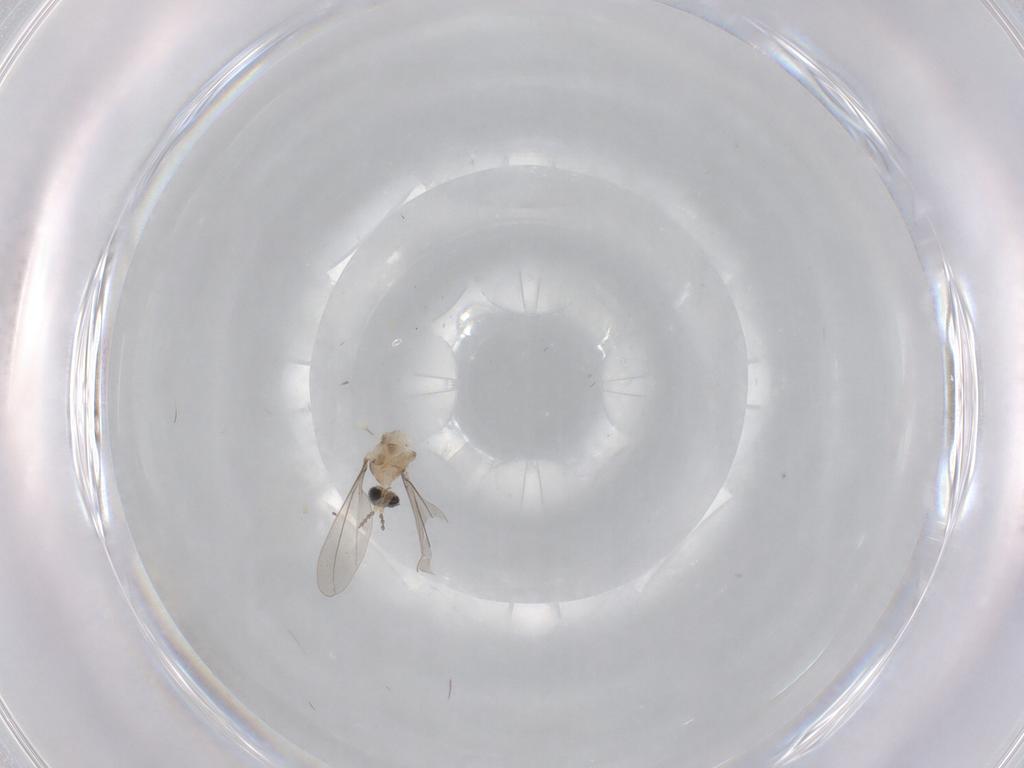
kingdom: Animalia
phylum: Arthropoda
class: Insecta
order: Diptera
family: Cecidomyiidae
